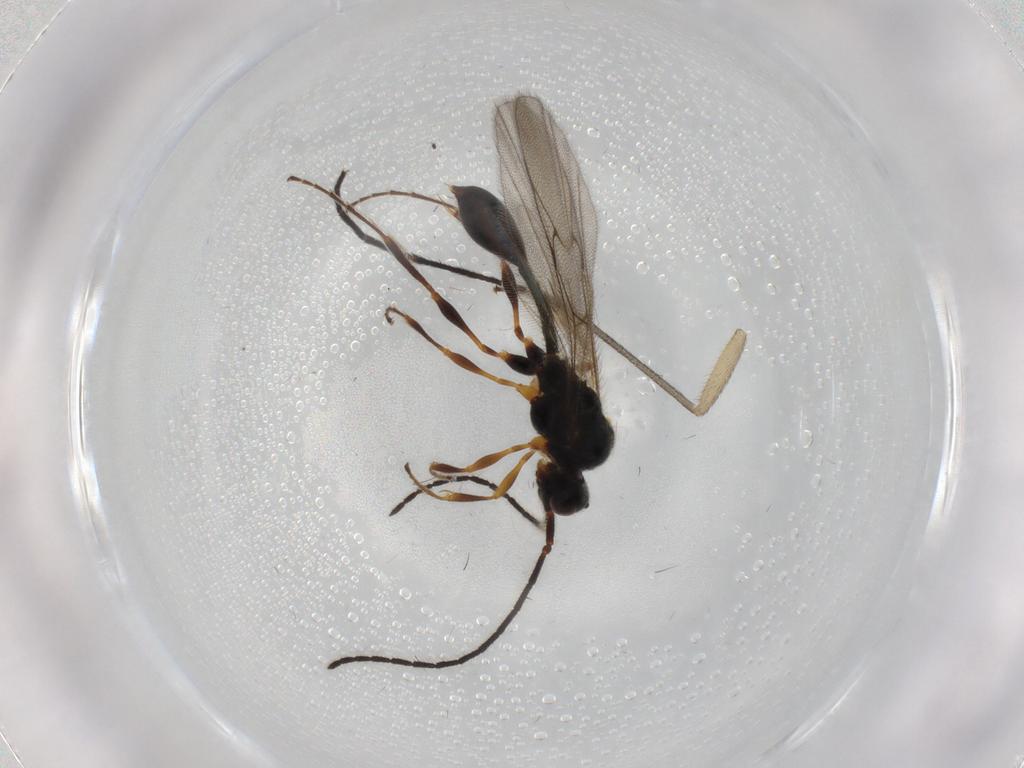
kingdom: Animalia
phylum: Arthropoda
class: Insecta
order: Hymenoptera
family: Diapriidae
